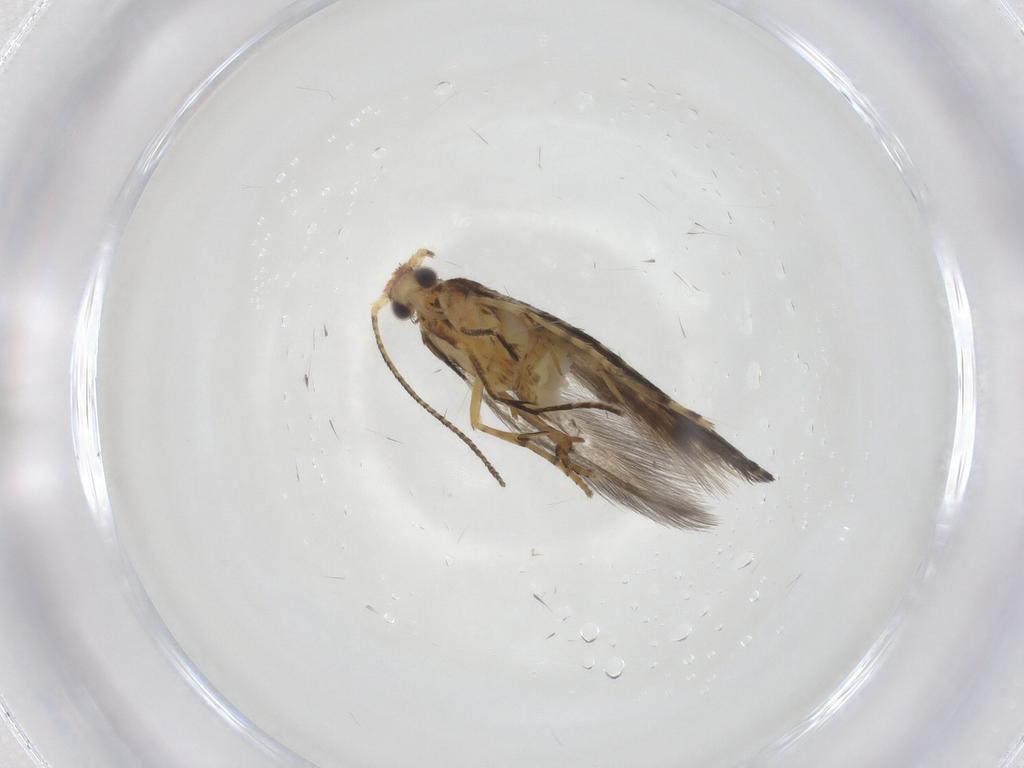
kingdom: Animalia
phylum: Arthropoda
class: Insecta
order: Lepidoptera
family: Argyresthiidae
